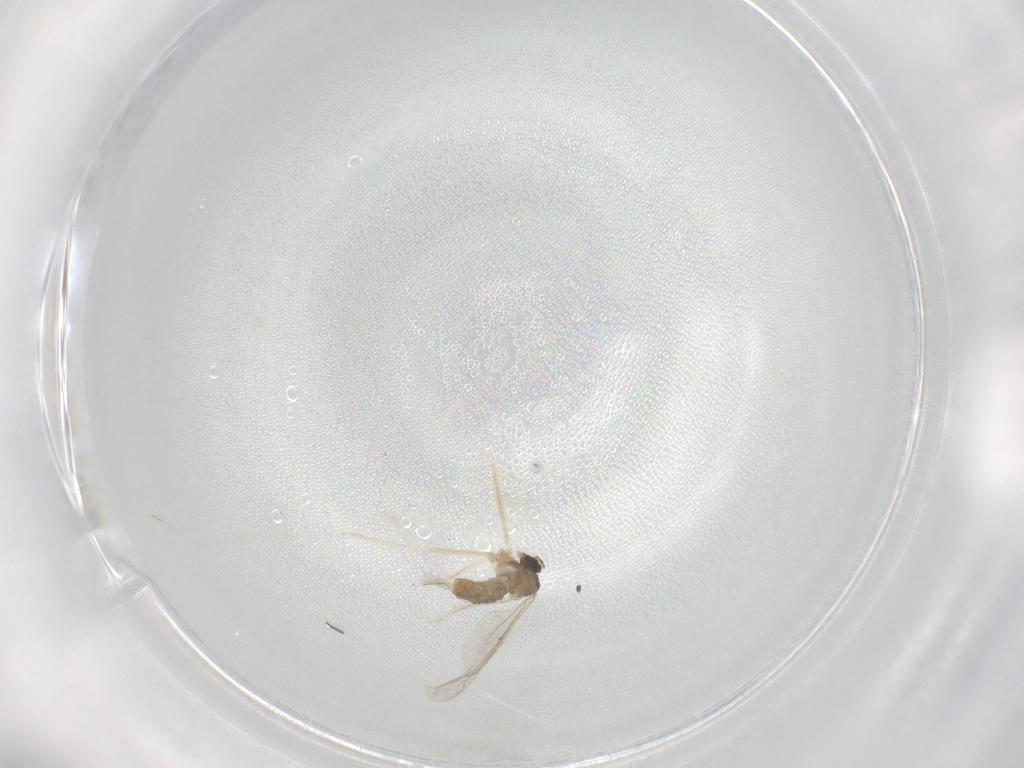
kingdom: Animalia
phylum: Arthropoda
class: Insecta
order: Diptera
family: Cecidomyiidae
